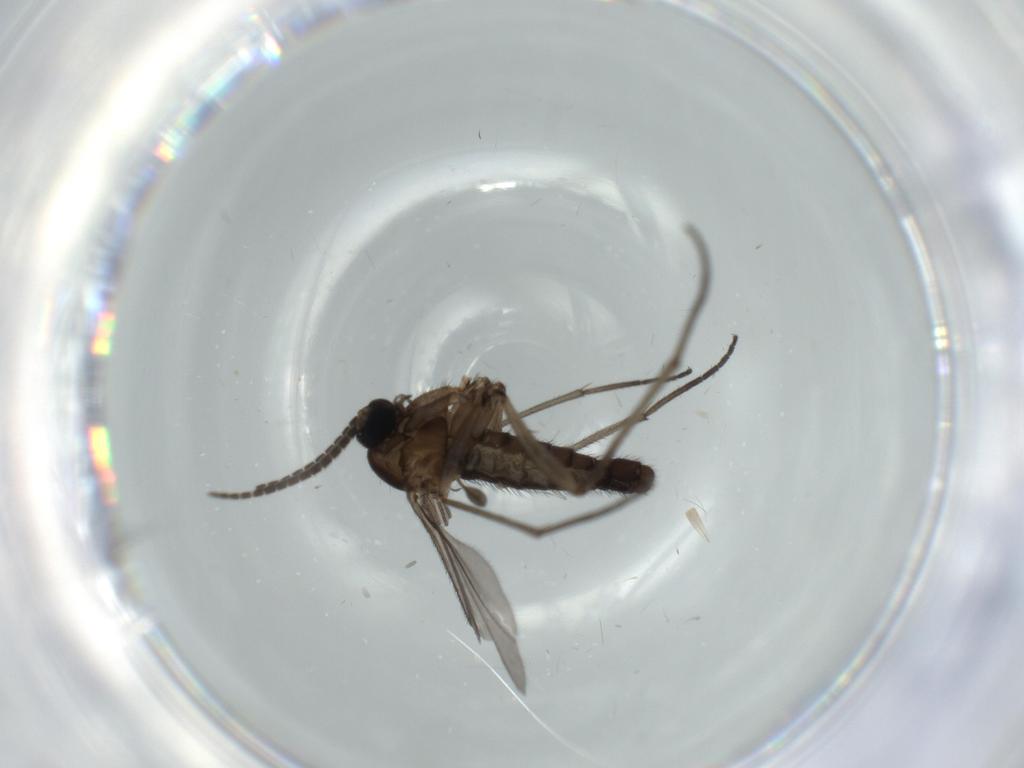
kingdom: Animalia
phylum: Arthropoda
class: Insecta
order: Diptera
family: Sciaridae
